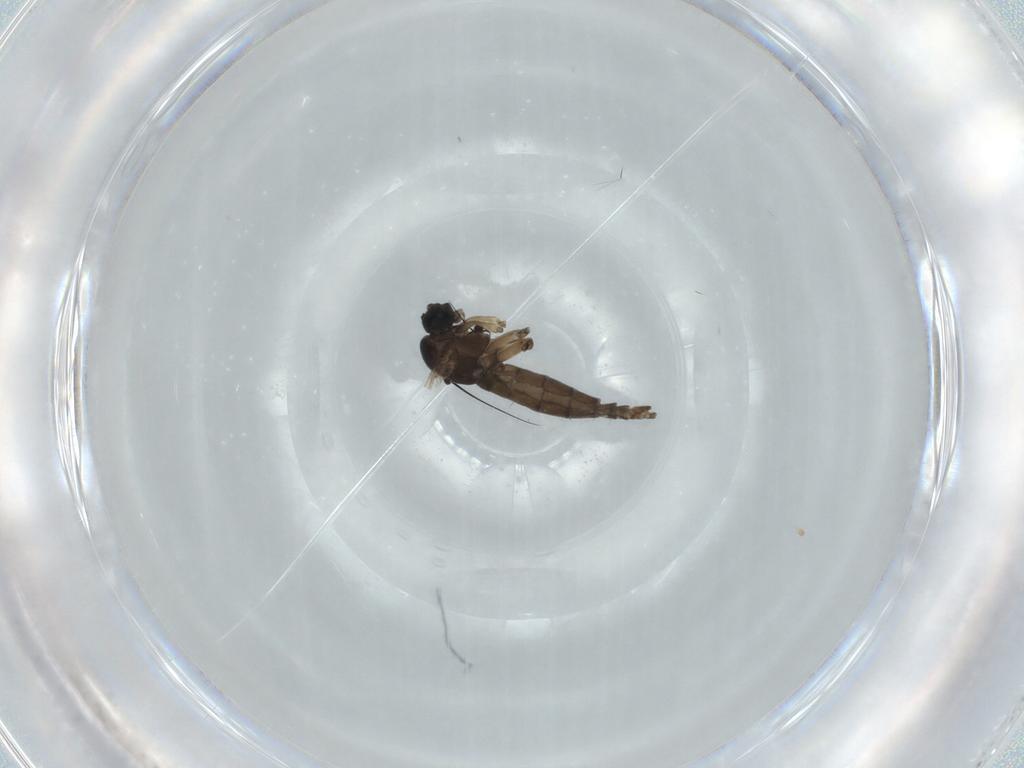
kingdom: Animalia
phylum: Arthropoda
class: Insecta
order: Diptera
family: Sciaridae
